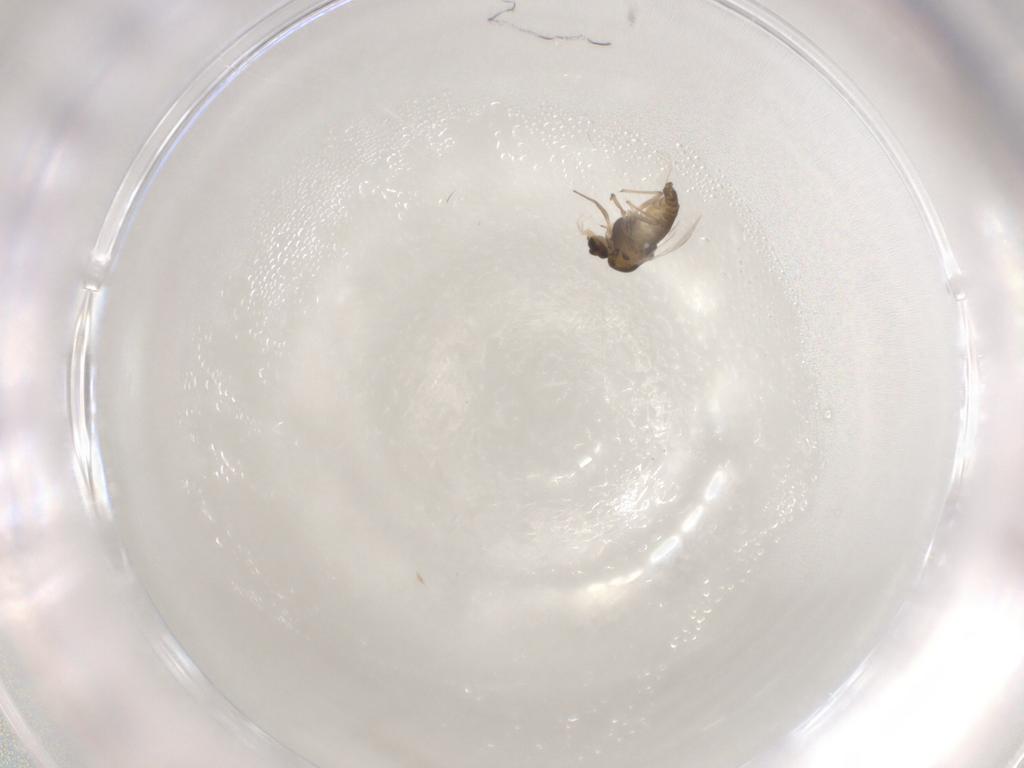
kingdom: Animalia
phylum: Arthropoda
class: Insecta
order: Diptera
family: Chironomidae
